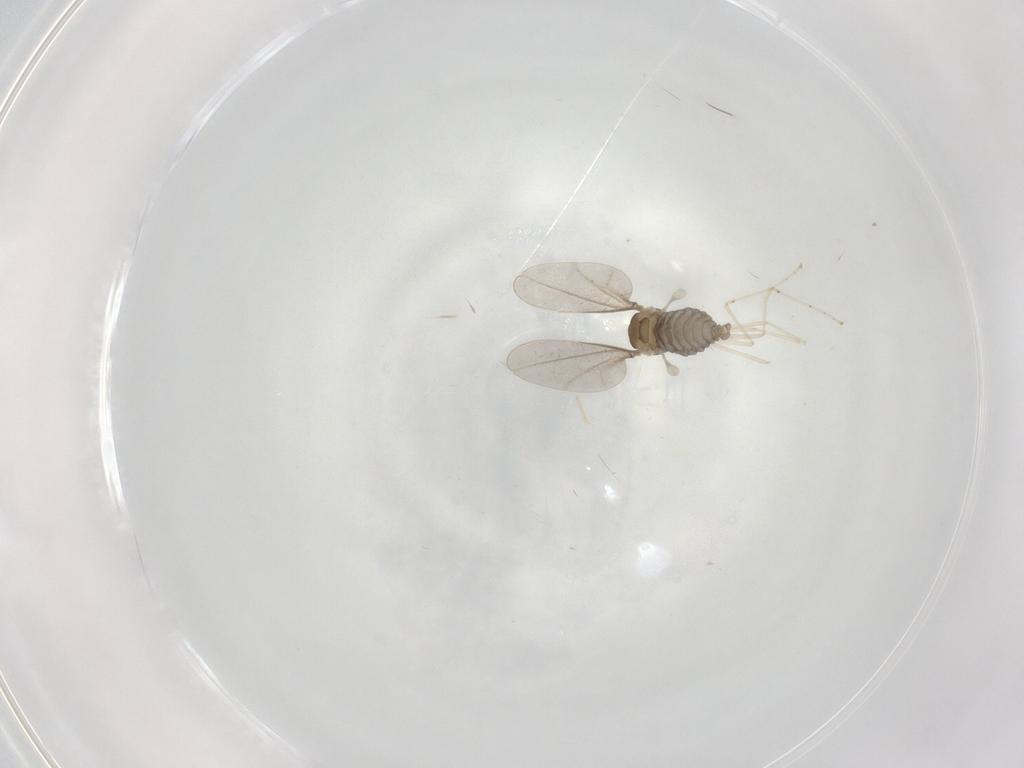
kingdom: Animalia
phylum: Arthropoda
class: Insecta
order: Diptera
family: Cecidomyiidae
